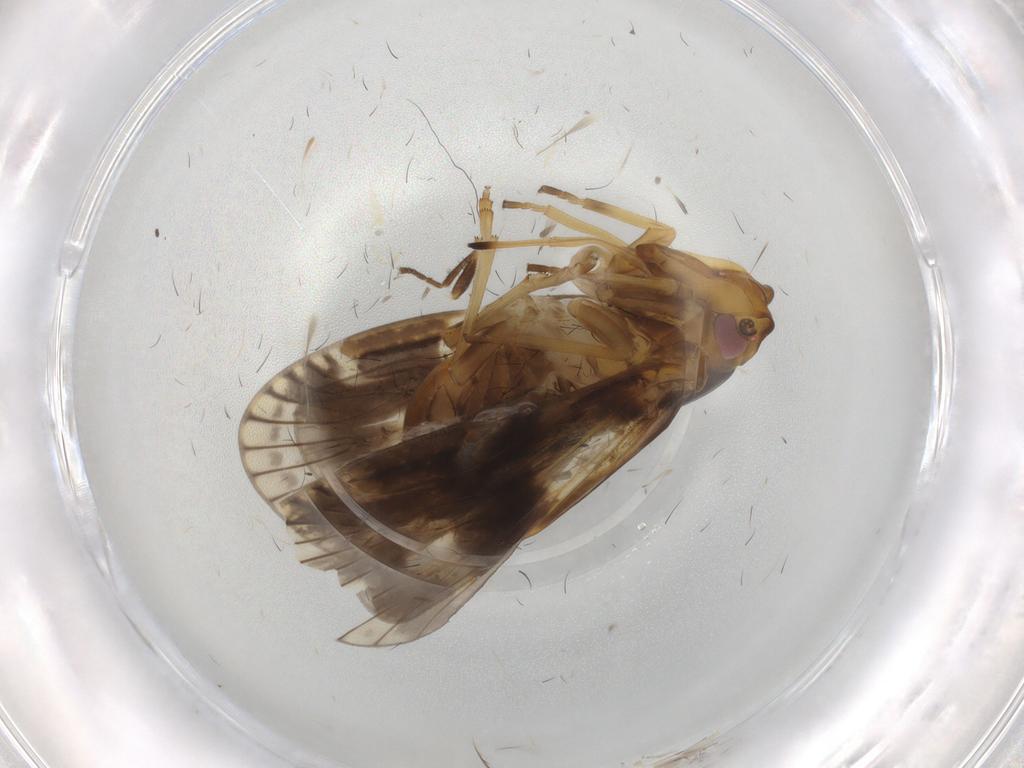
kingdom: Animalia
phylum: Arthropoda
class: Insecta
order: Hemiptera
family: Cixiidae
